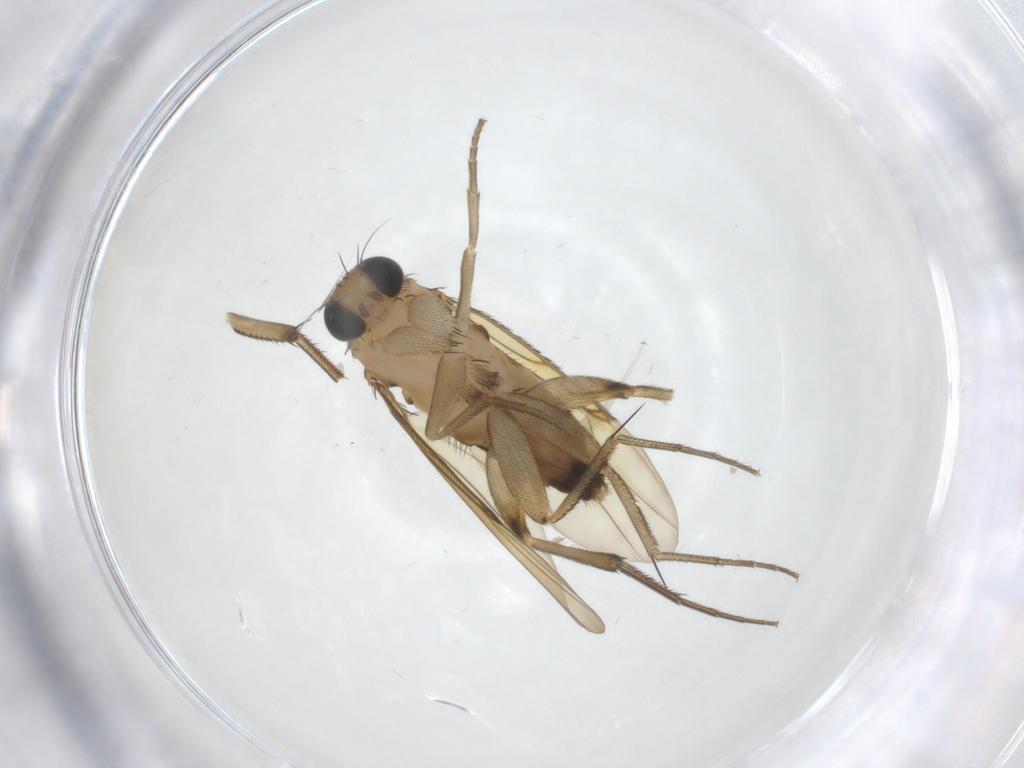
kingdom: Animalia
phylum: Arthropoda
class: Insecta
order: Diptera
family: Phoridae
